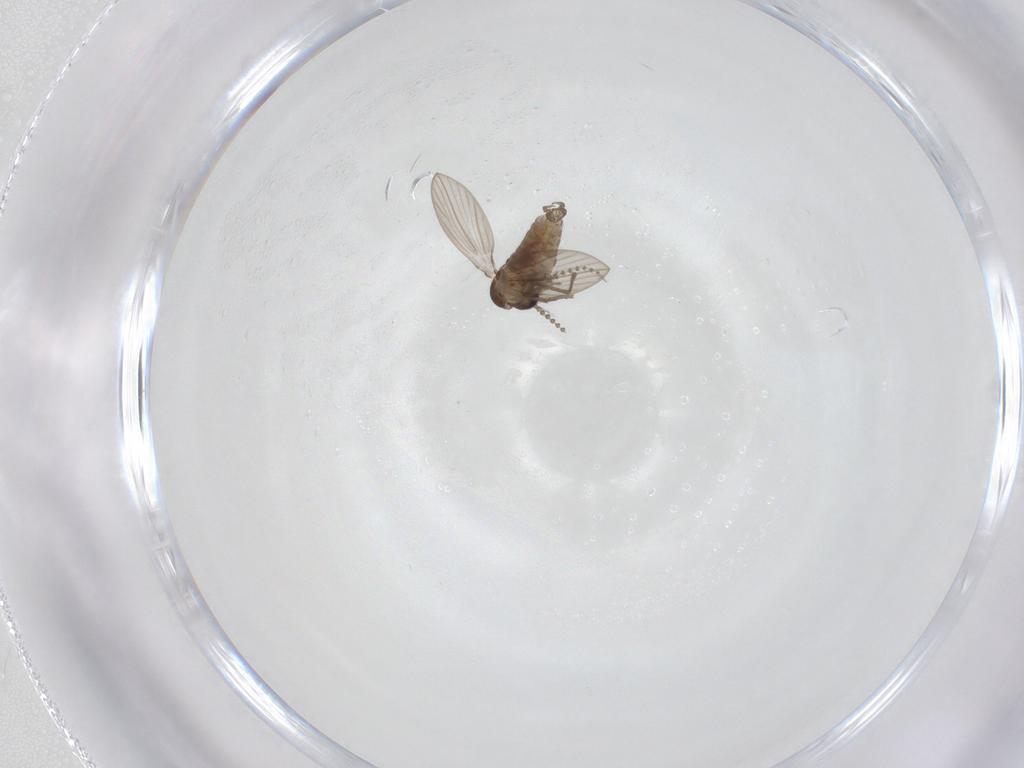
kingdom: Animalia
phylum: Arthropoda
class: Insecta
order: Diptera
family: Psychodidae
